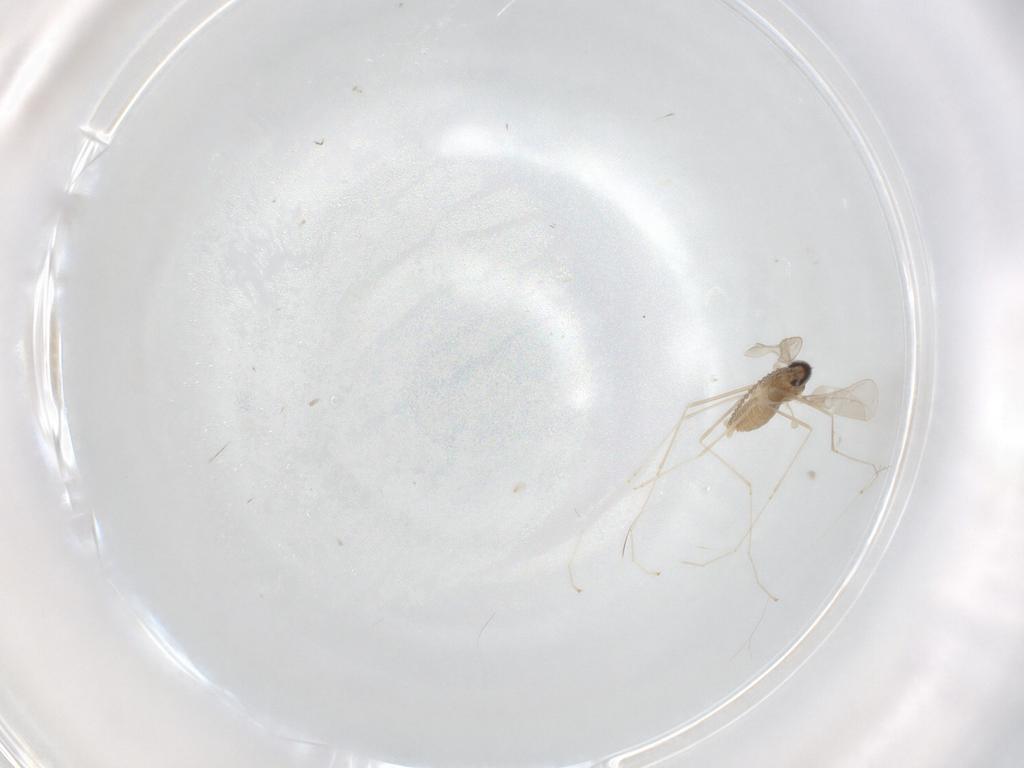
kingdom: Animalia
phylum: Arthropoda
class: Insecta
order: Diptera
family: Cecidomyiidae
